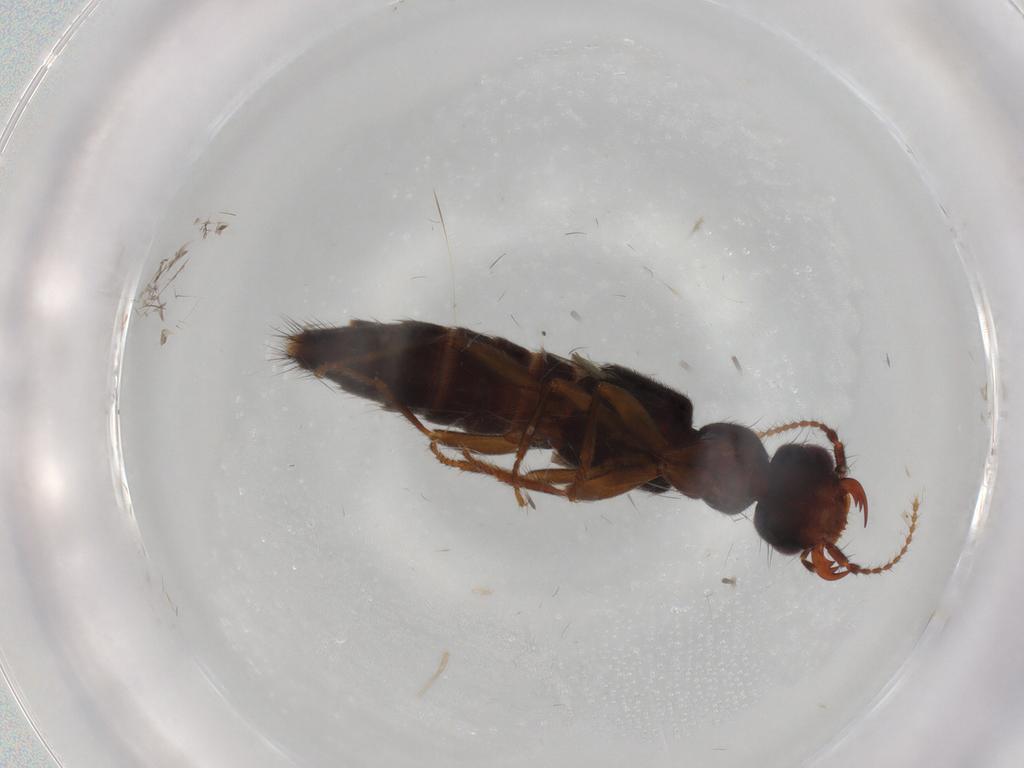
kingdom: Animalia
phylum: Arthropoda
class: Insecta
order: Coleoptera
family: Staphylinidae
